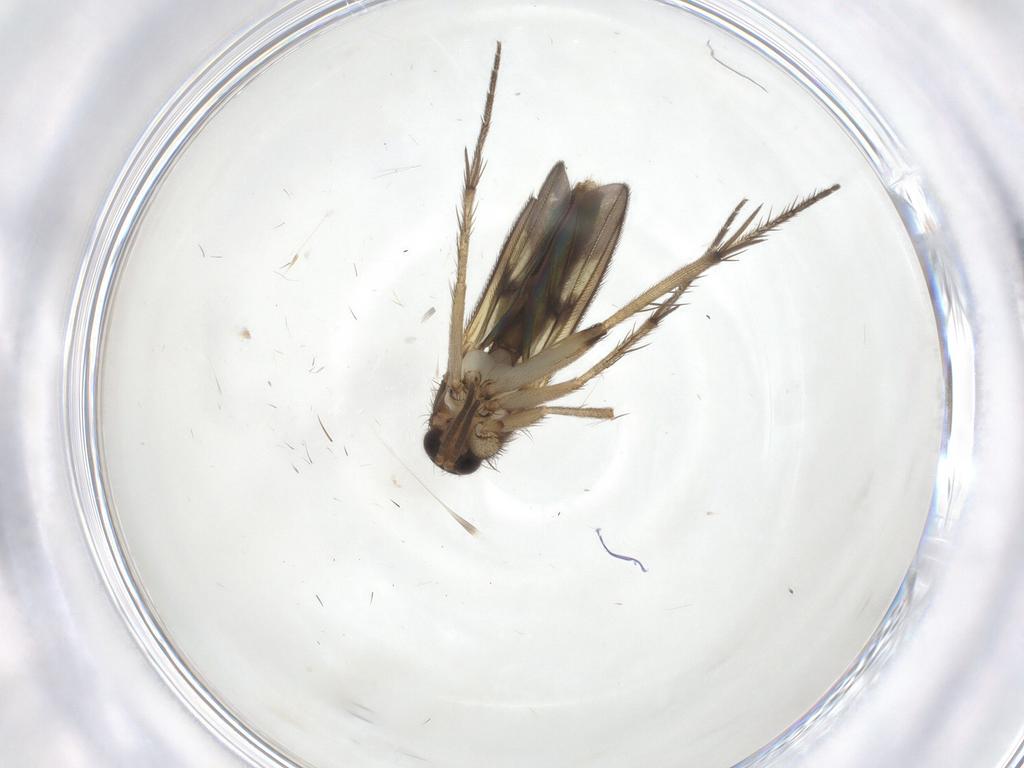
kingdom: Animalia
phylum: Arthropoda
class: Insecta
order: Diptera
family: Mycetophilidae
